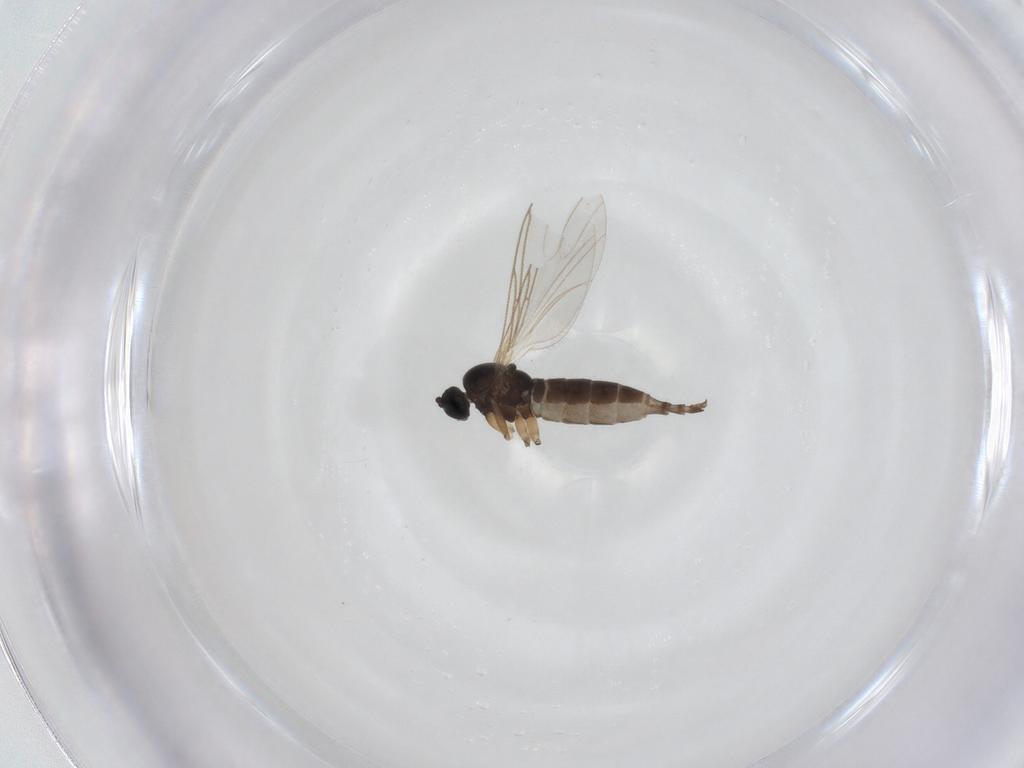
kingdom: Animalia
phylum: Arthropoda
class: Insecta
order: Diptera
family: Sciaridae
